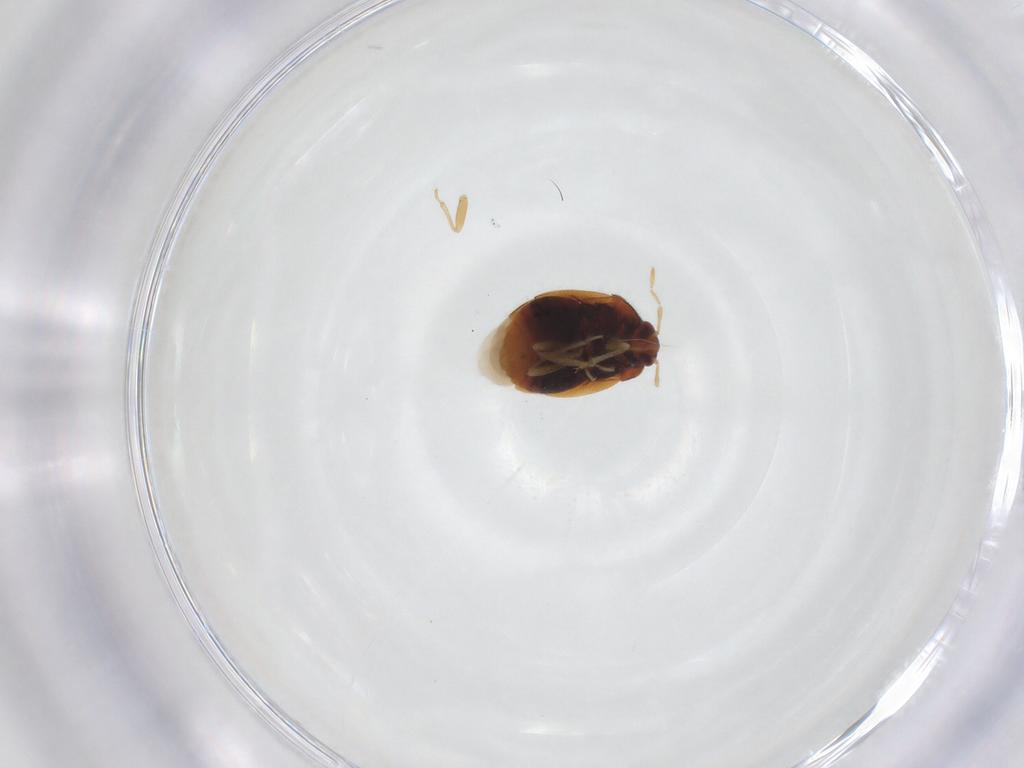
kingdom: Animalia
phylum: Arthropoda
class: Insecta
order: Hemiptera
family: Anthocoridae
